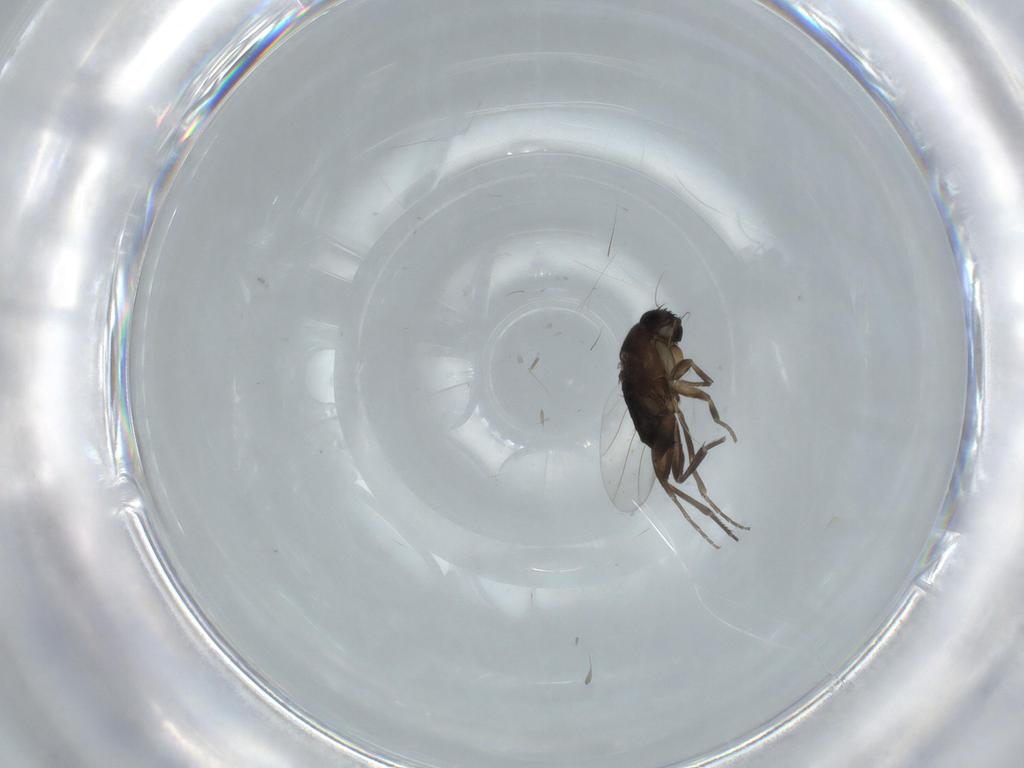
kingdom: Animalia
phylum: Arthropoda
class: Insecta
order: Diptera
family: Phoridae
